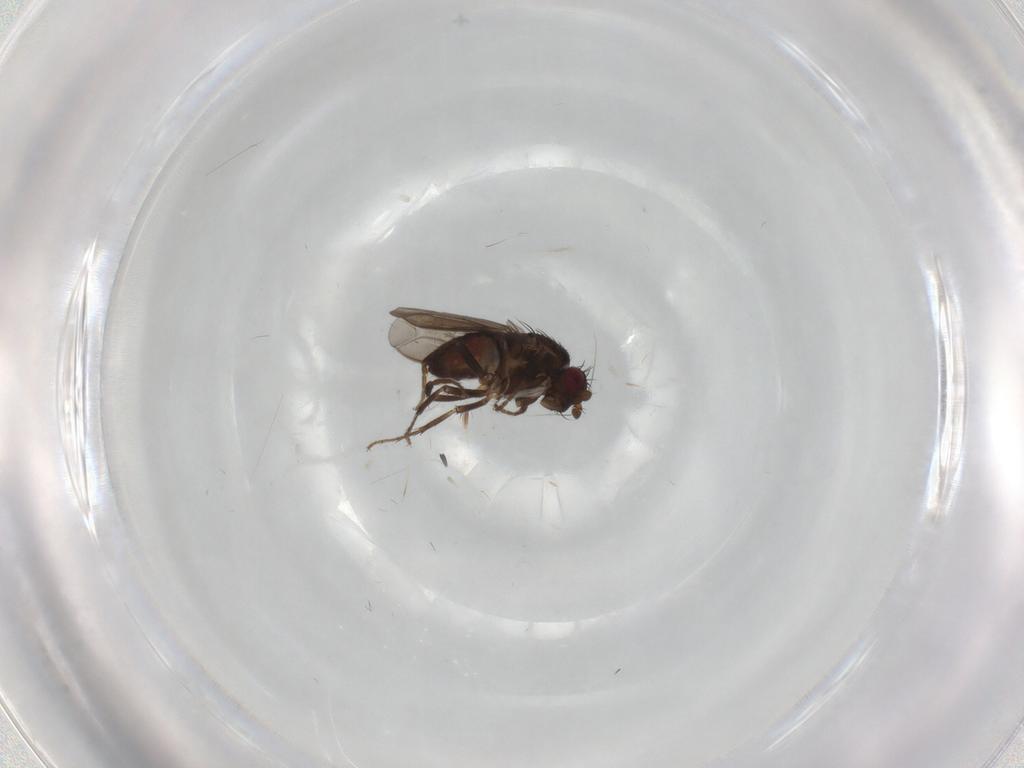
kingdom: Animalia
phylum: Arthropoda
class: Insecta
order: Diptera
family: Sphaeroceridae
